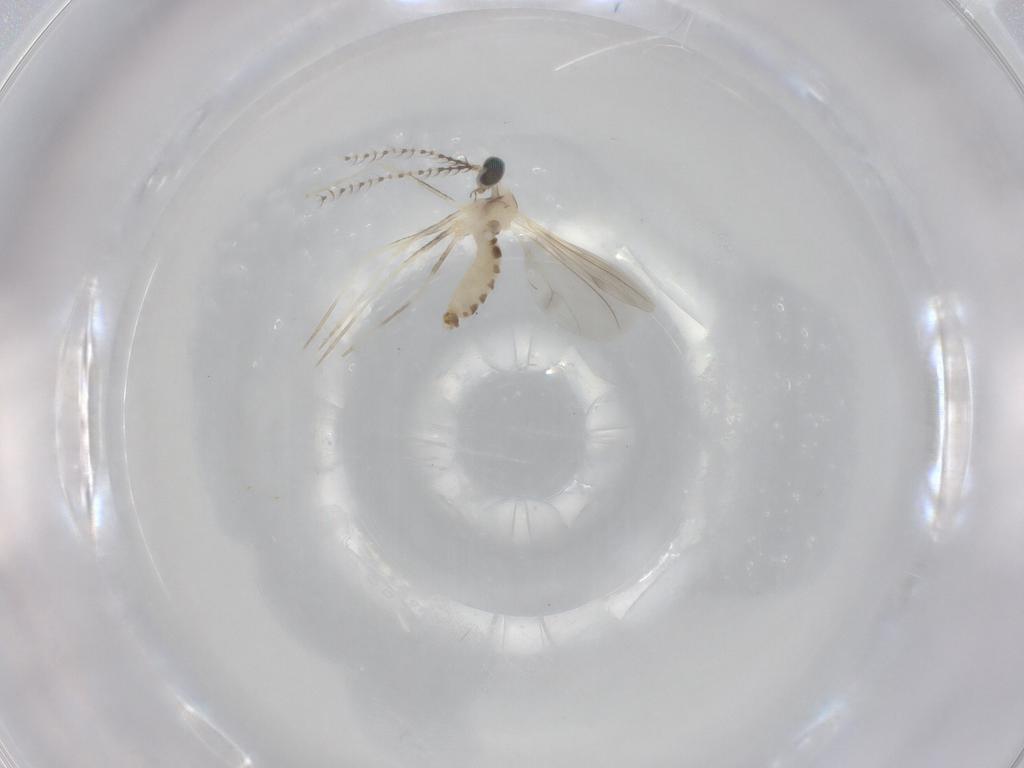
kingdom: Animalia
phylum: Arthropoda
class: Insecta
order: Diptera
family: Cecidomyiidae
